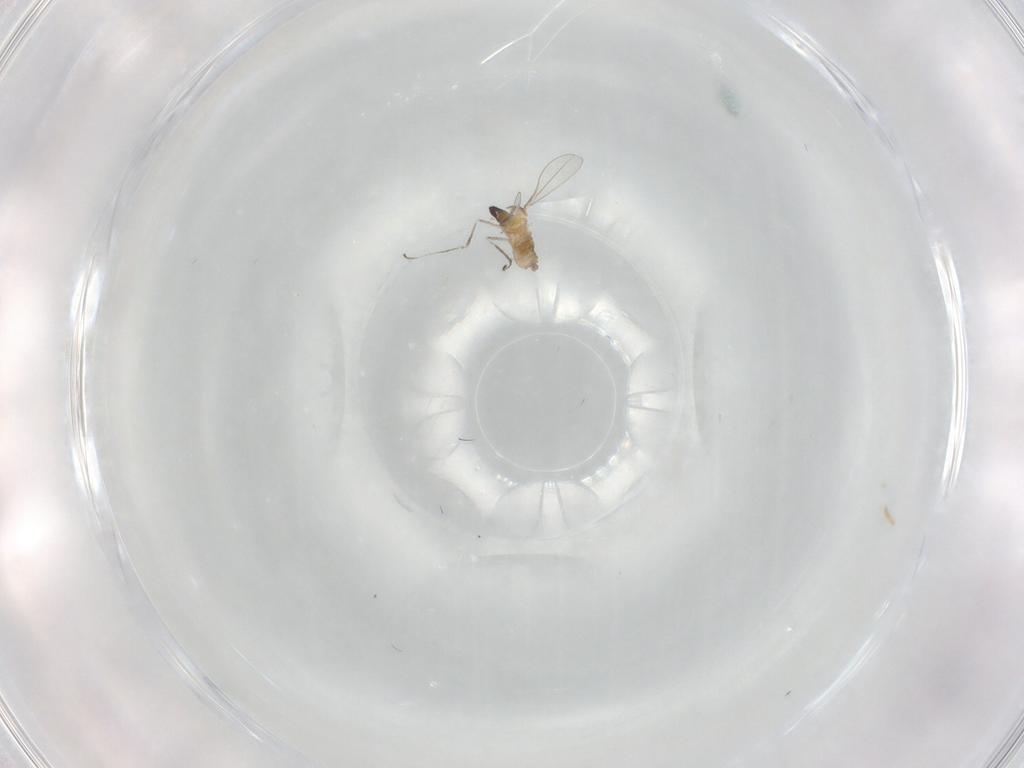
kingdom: Animalia
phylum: Arthropoda
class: Insecta
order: Diptera
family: Cecidomyiidae
